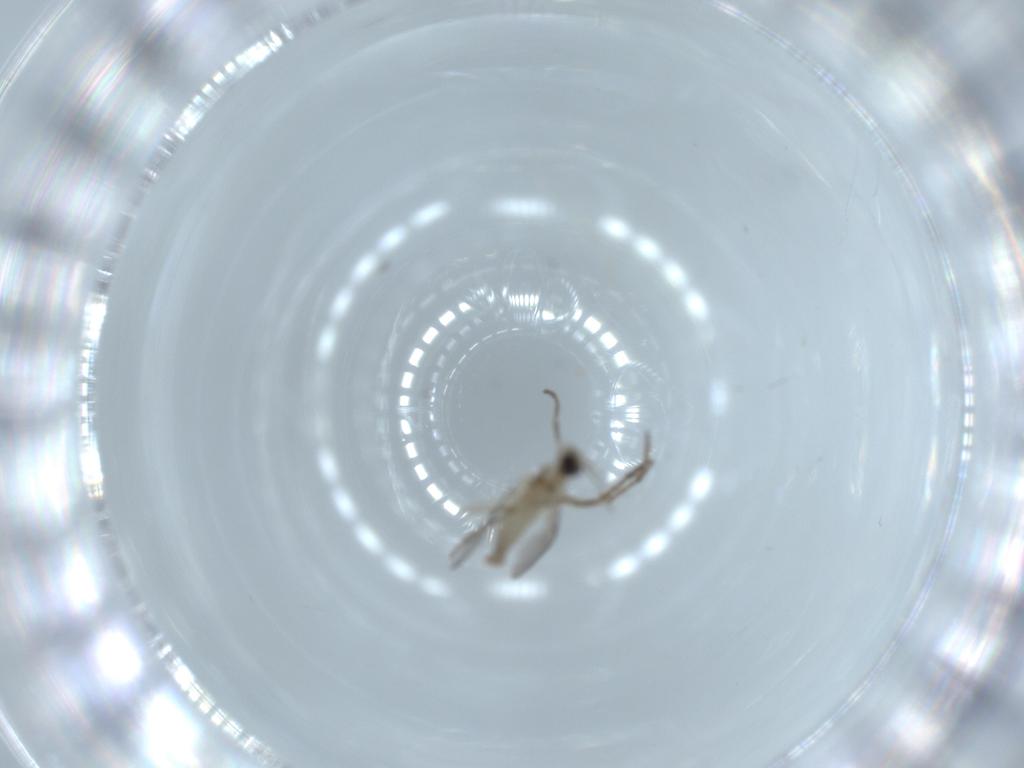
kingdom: Animalia
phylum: Arthropoda
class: Insecta
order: Diptera
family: Cecidomyiidae
